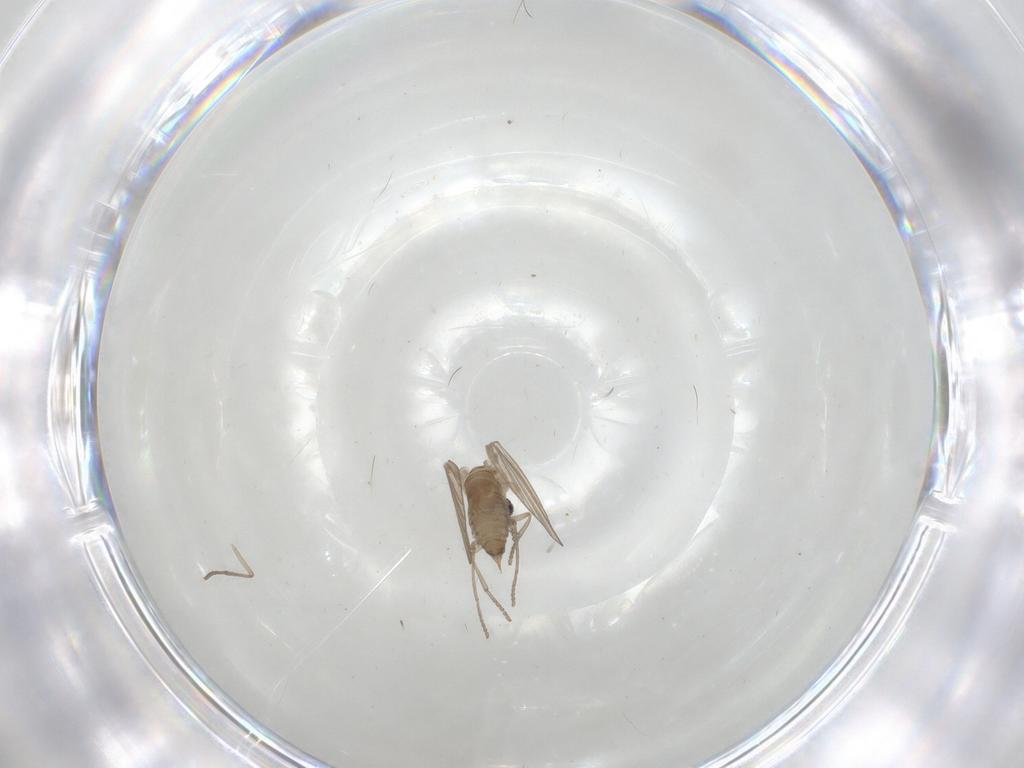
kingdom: Animalia
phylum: Arthropoda
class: Insecta
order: Diptera
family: Psychodidae
